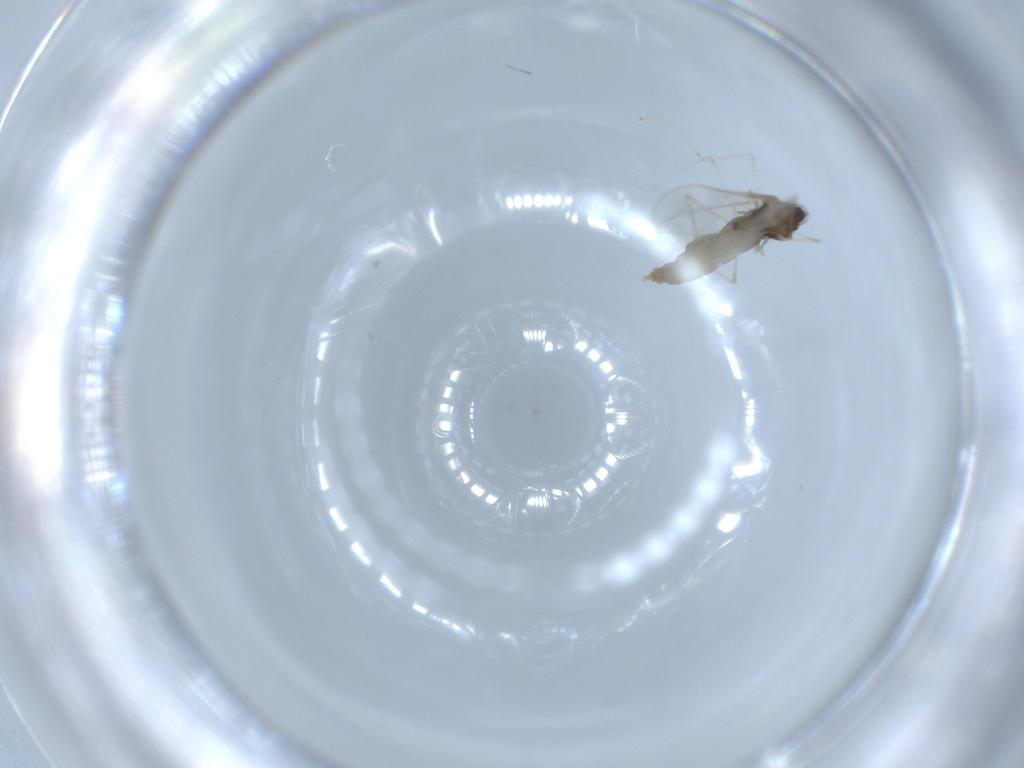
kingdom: Animalia
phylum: Arthropoda
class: Insecta
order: Diptera
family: Cecidomyiidae
